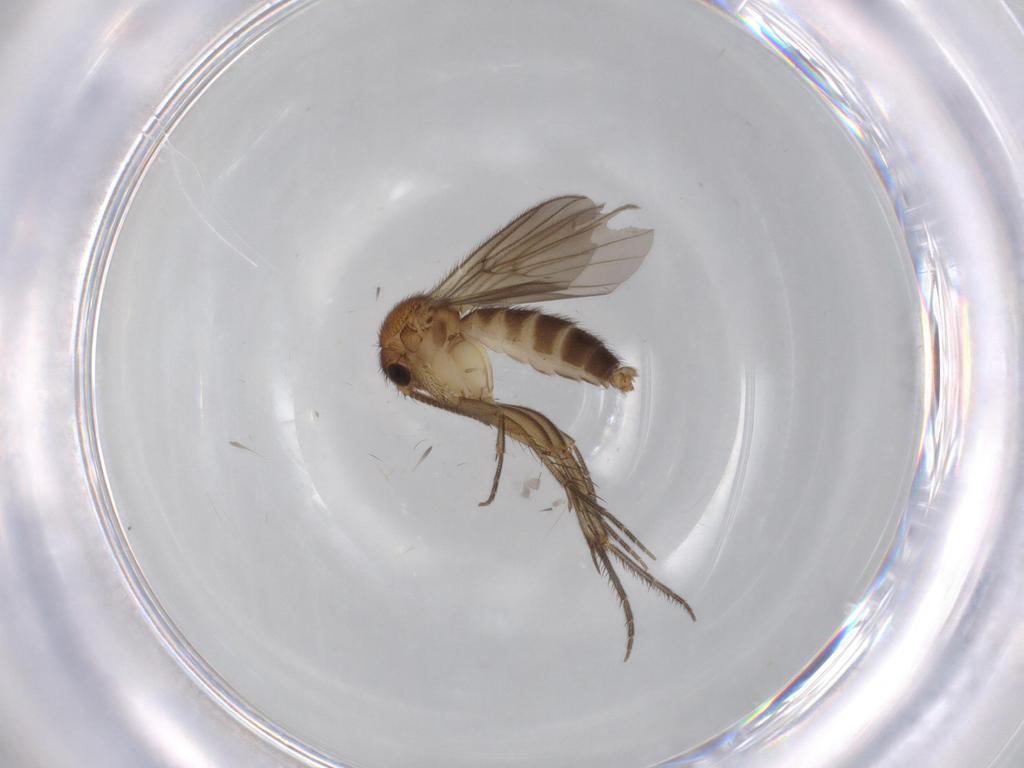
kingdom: Animalia
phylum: Arthropoda
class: Insecta
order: Diptera
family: Mycetophilidae
